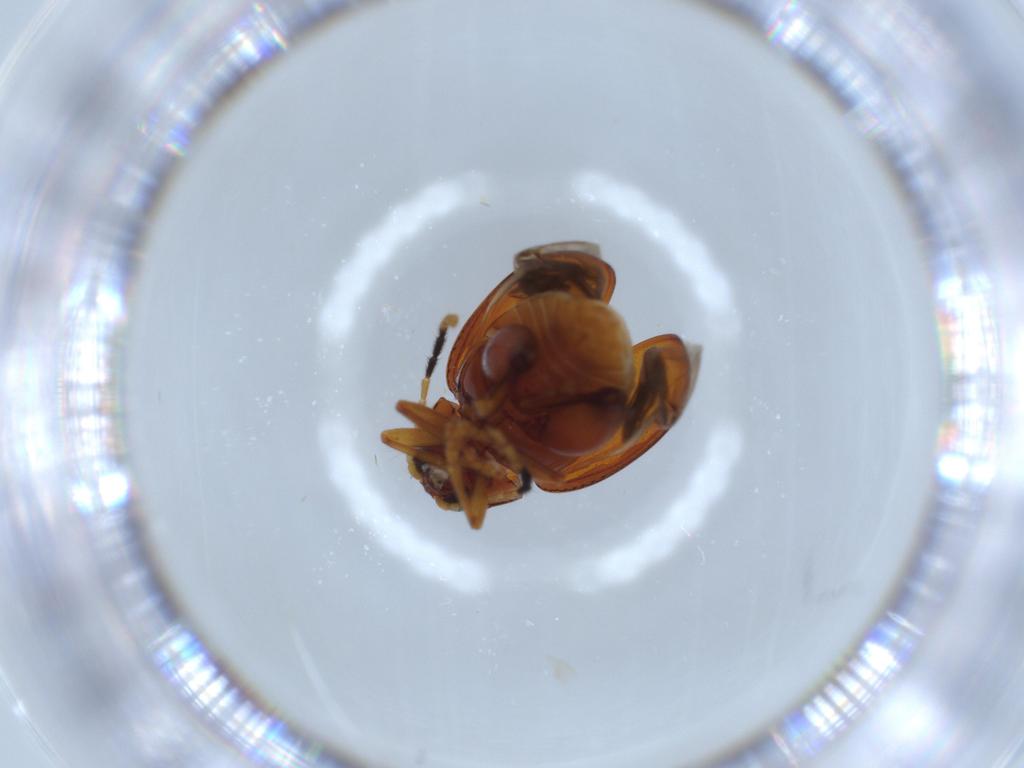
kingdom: Animalia
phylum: Arthropoda
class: Insecta
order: Coleoptera
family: Chrysomelidae
